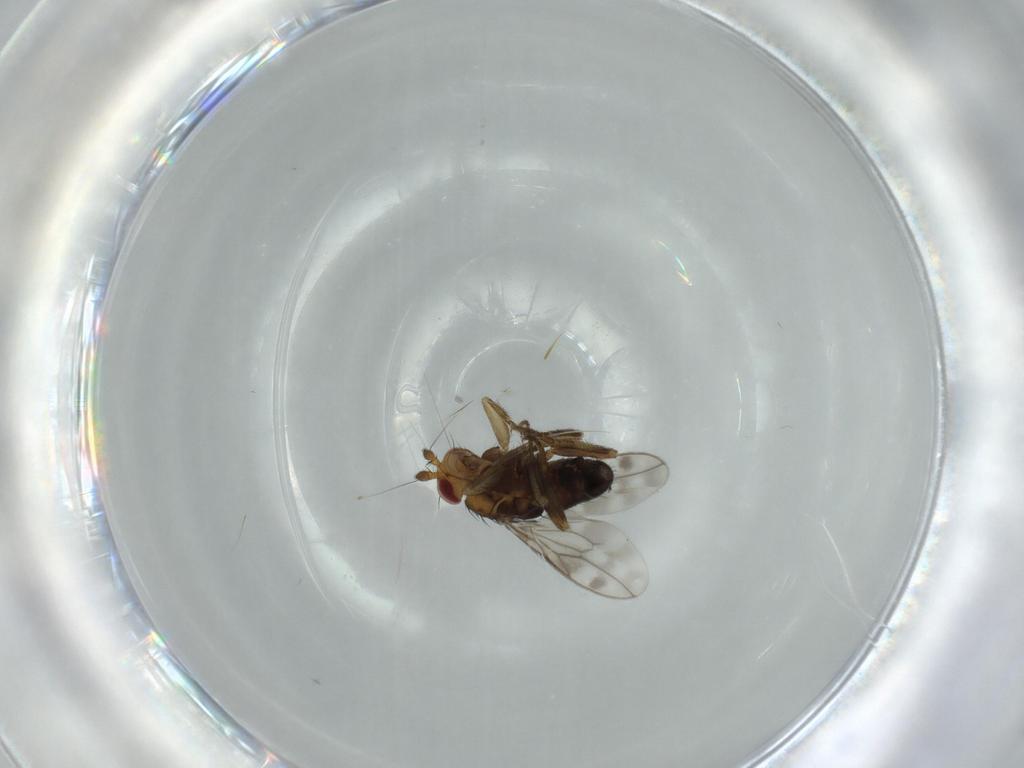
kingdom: Animalia
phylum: Arthropoda
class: Insecta
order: Diptera
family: Sphaeroceridae
